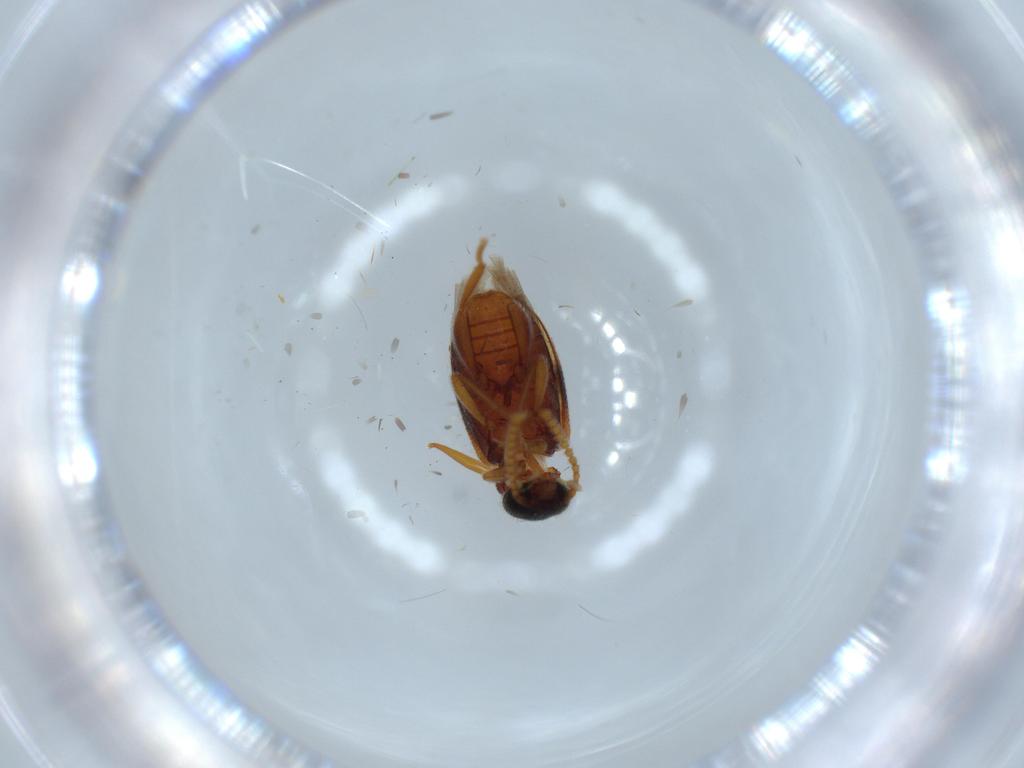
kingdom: Animalia
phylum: Arthropoda
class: Insecta
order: Coleoptera
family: Aderidae
